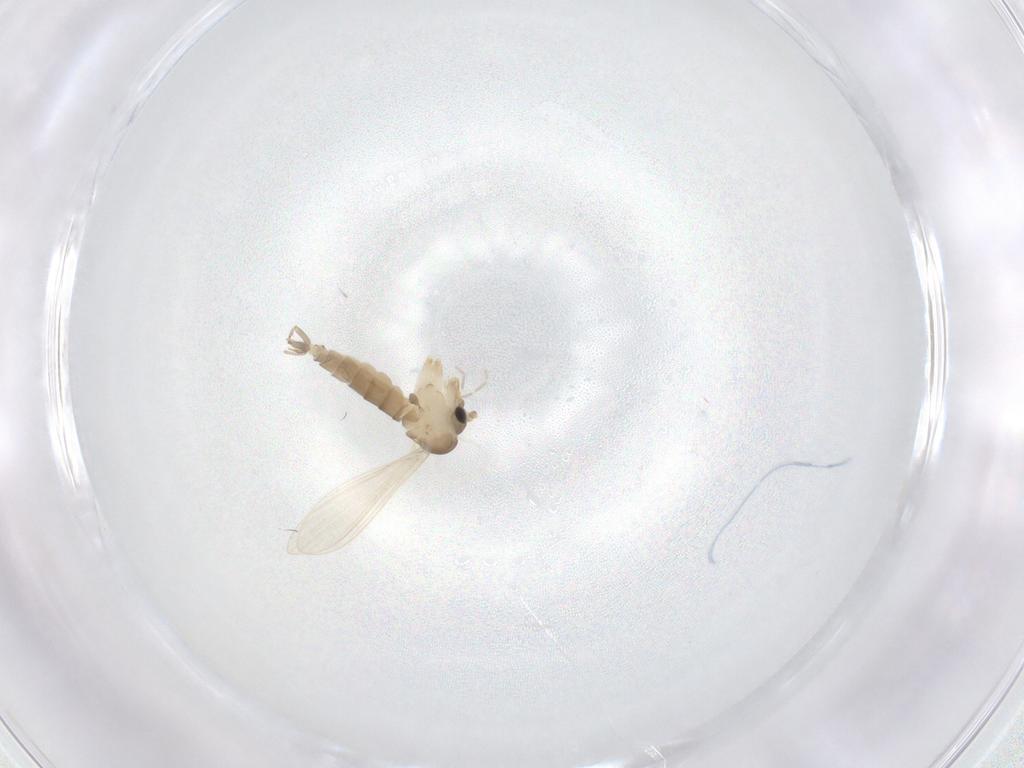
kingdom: Animalia
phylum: Arthropoda
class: Insecta
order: Diptera
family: Psychodidae
